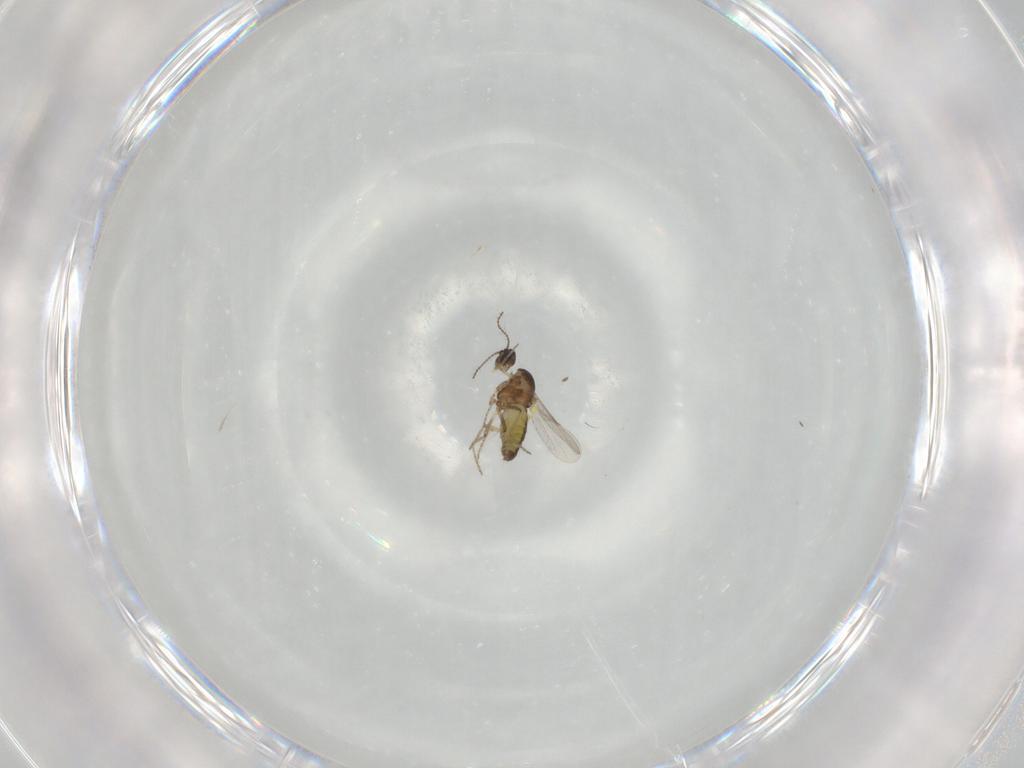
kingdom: Animalia
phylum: Arthropoda
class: Insecta
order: Diptera
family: Ceratopogonidae
